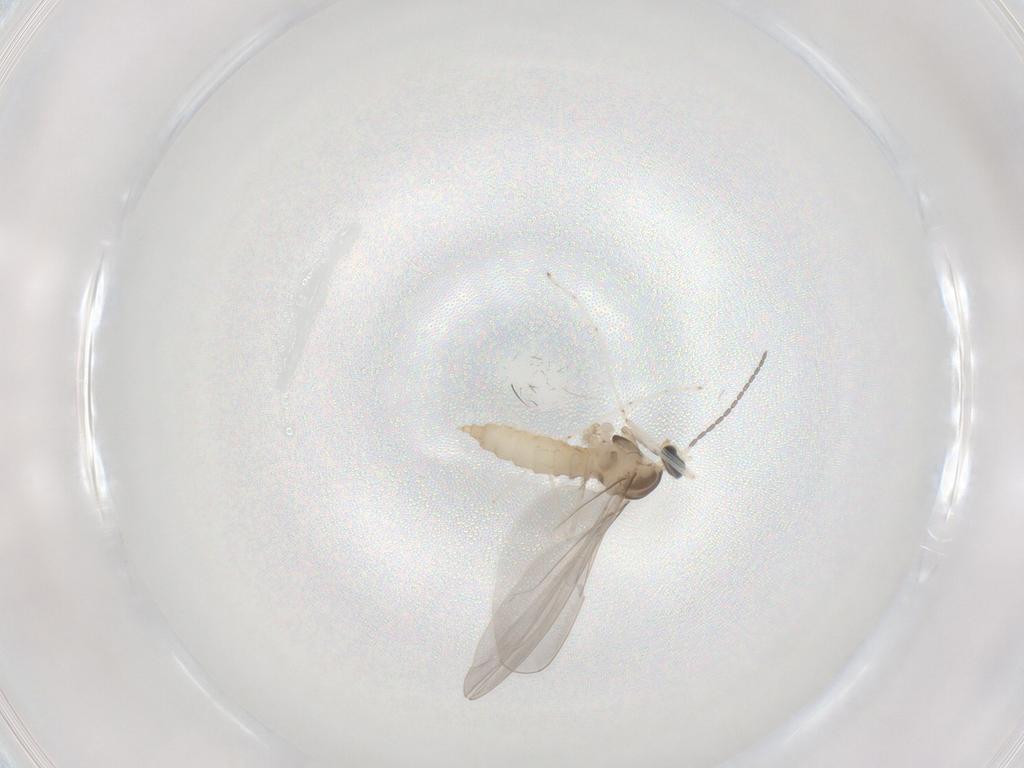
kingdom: Animalia
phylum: Arthropoda
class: Insecta
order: Diptera
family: Cecidomyiidae
